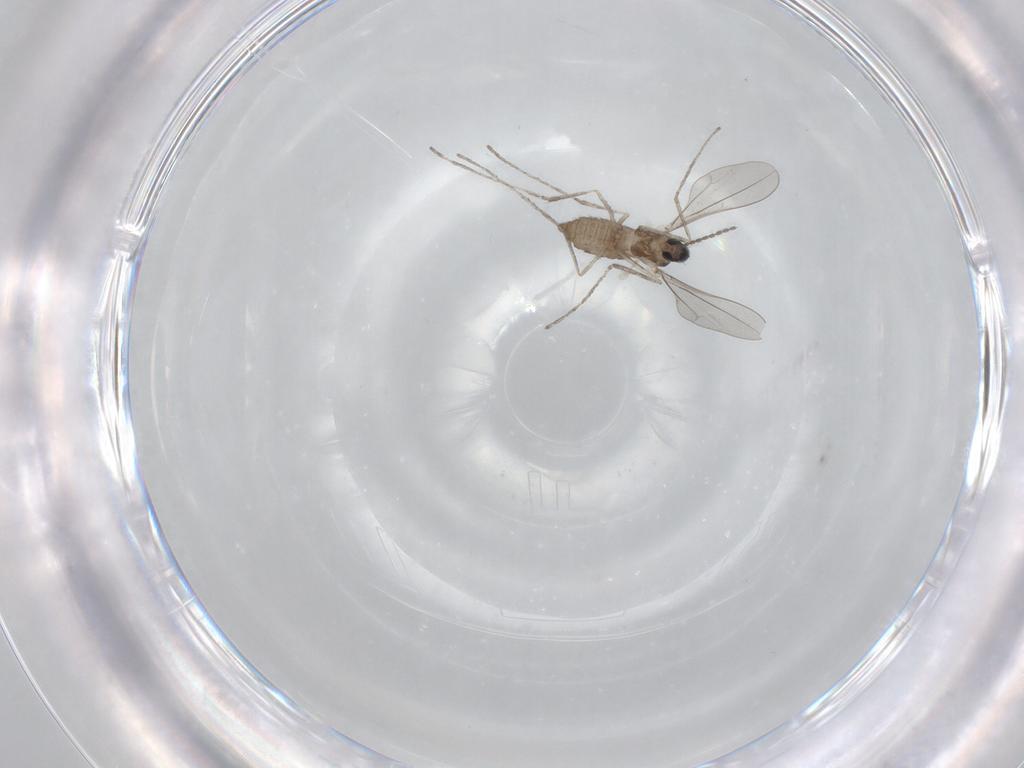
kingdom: Animalia
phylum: Arthropoda
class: Insecta
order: Diptera
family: Cecidomyiidae
